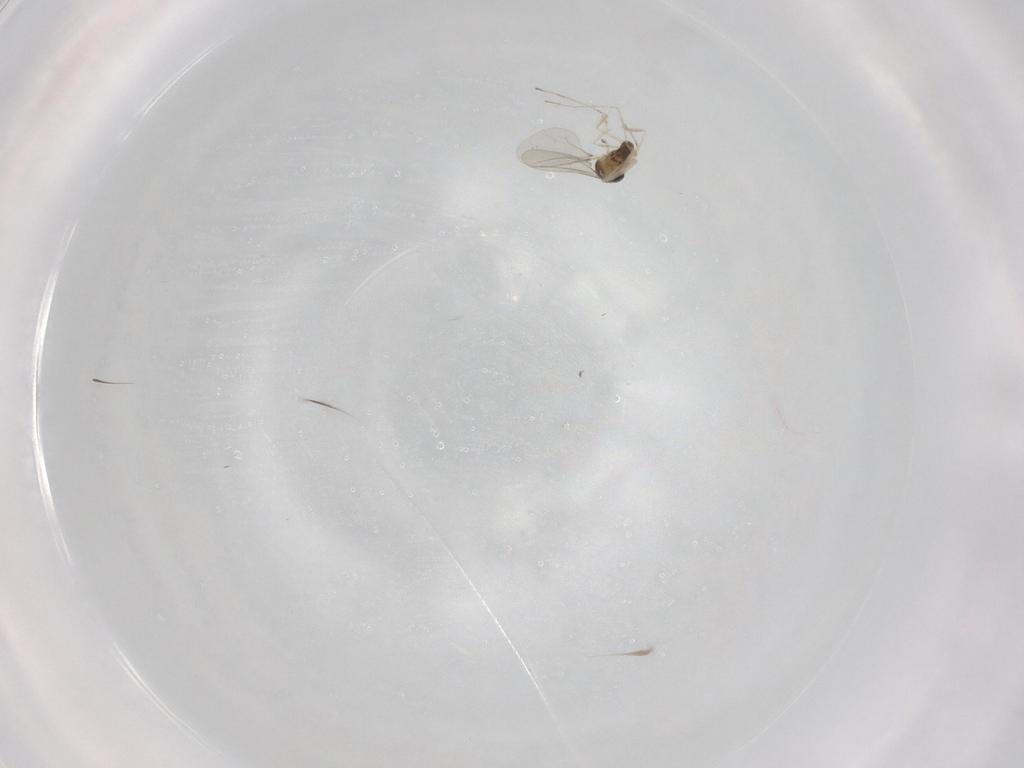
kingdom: Animalia
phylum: Arthropoda
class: Insecta
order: Diptera
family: Cecidomyiidae
